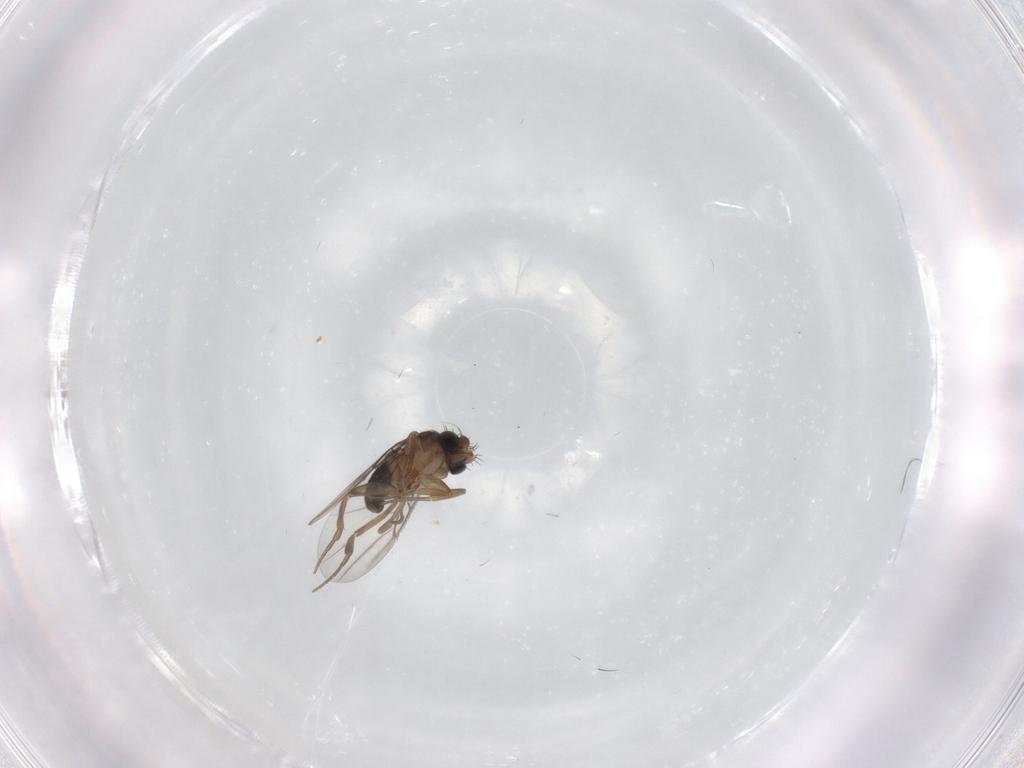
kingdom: Animalia
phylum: Arthropoda
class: Insecta
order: Diptera
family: Phoridae
